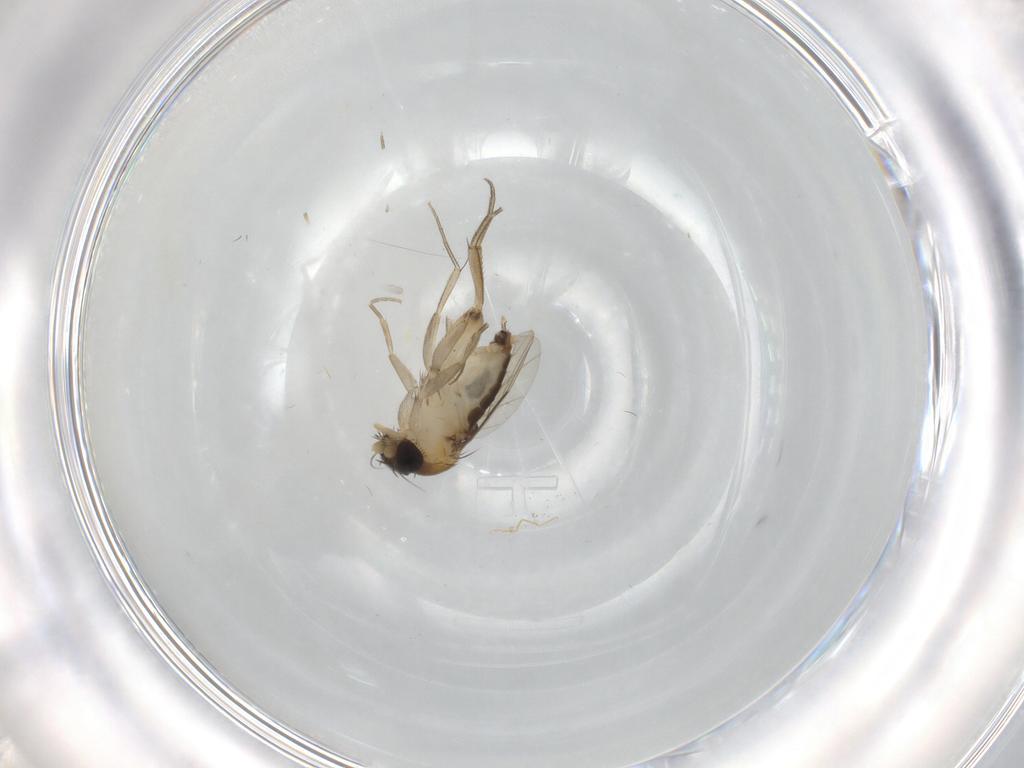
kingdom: Animalia
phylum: Arthropoda
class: Insecta
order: Diptera
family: Phoridae
